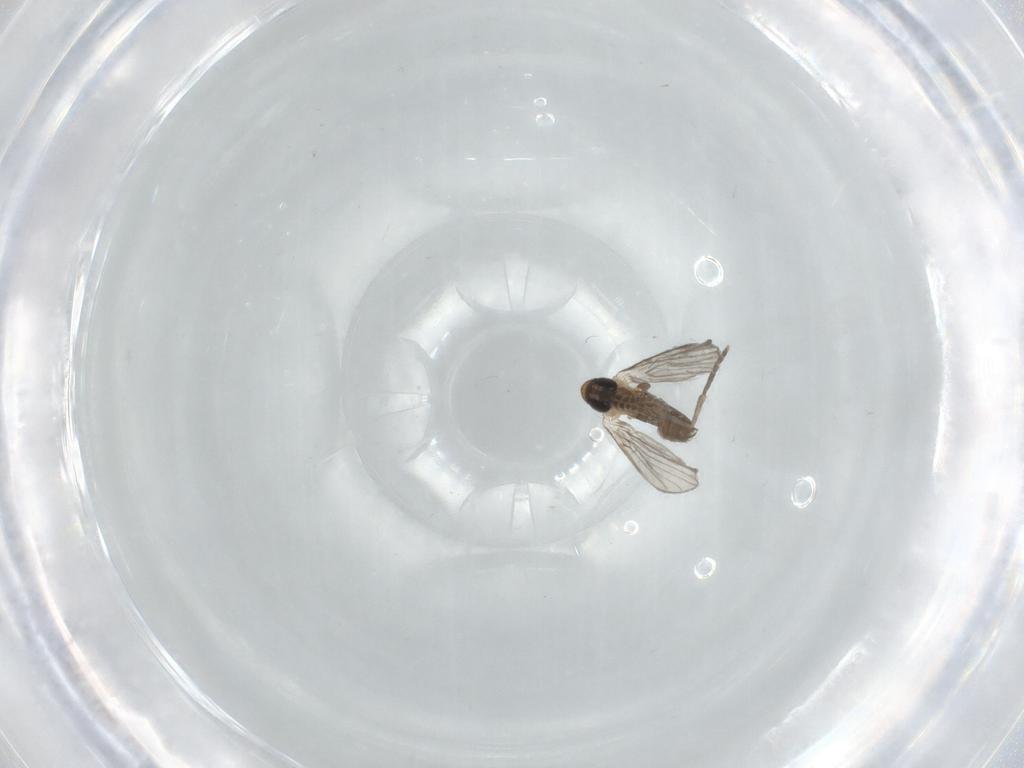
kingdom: Animalia
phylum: Arthropoda
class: Insecta
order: Diptera
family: Psychodidae
